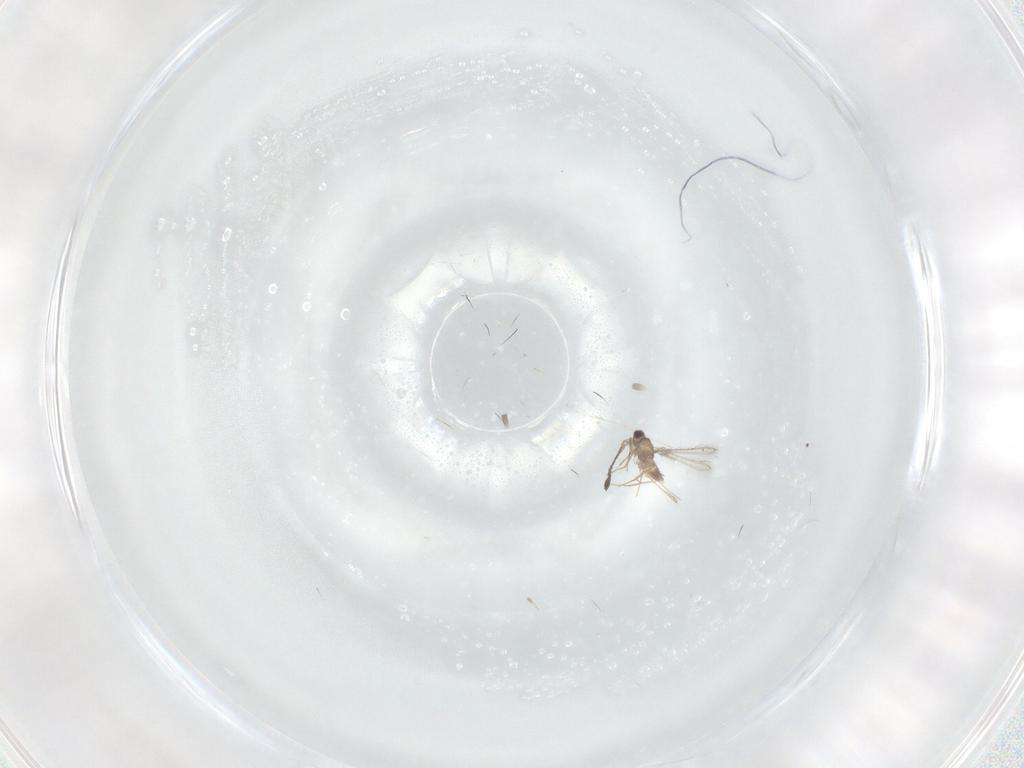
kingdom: Animalia
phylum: Arthropoda
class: Insecta
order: Hymenoptera
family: Mymaridae
